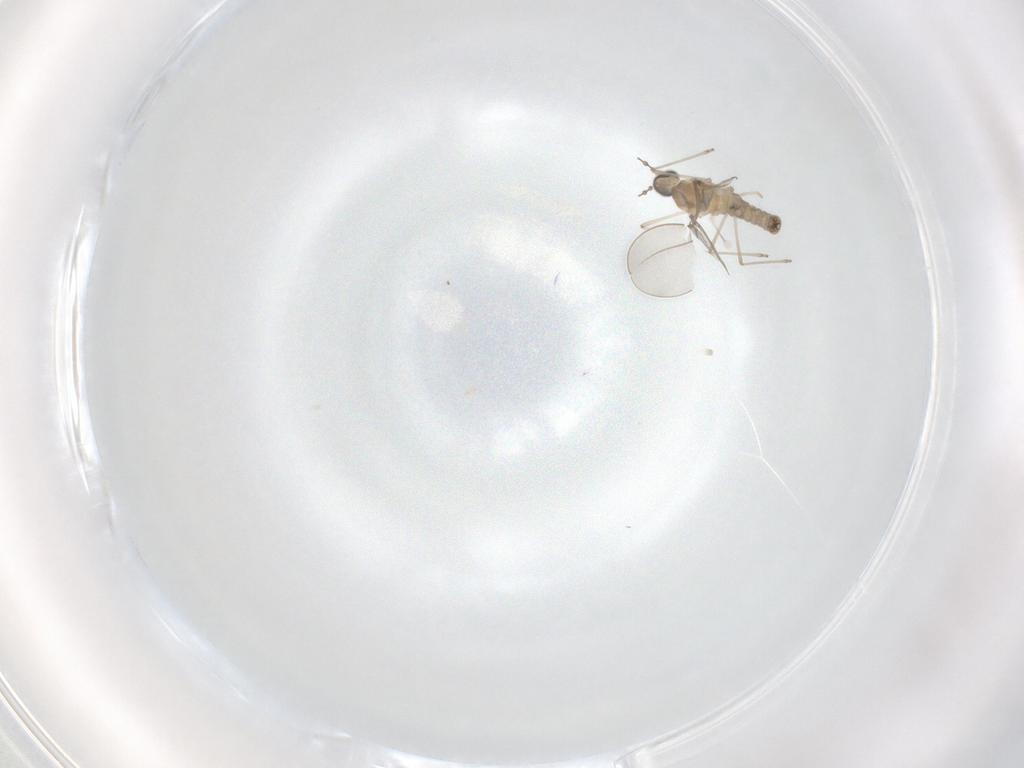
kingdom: Animalia
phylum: Arthropoda
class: Insecta
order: Diptera
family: Cecidomyiidae
